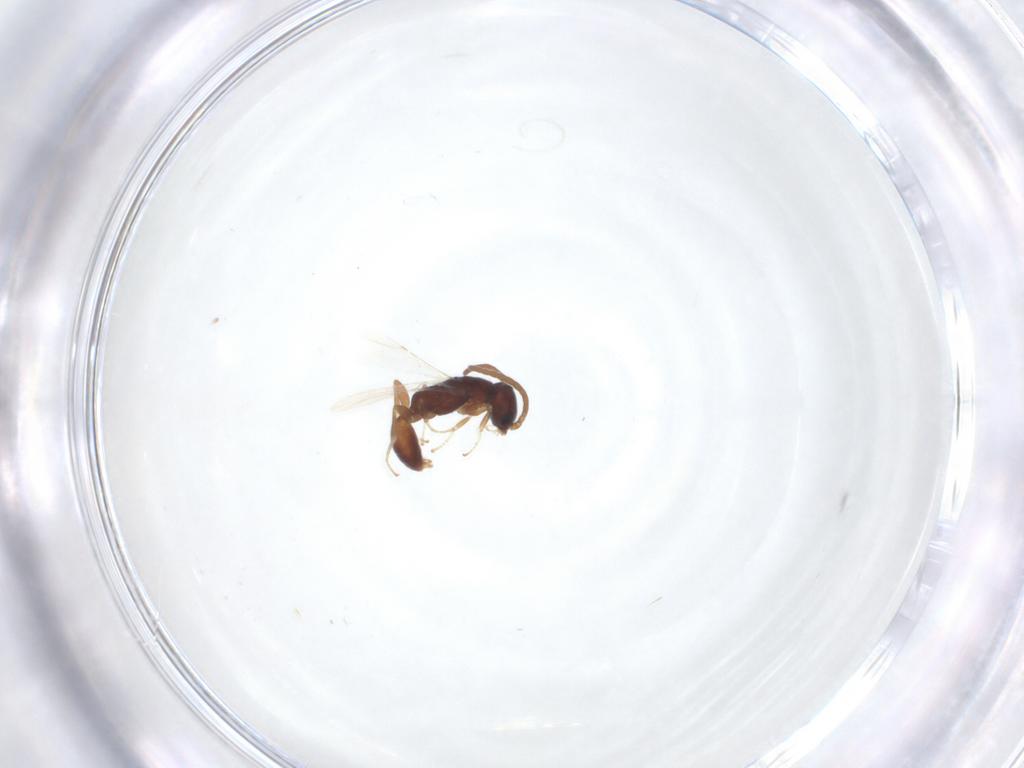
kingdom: Animalia
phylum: Arthropoda
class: Insecta
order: Hymenoptera
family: Bethylidae
